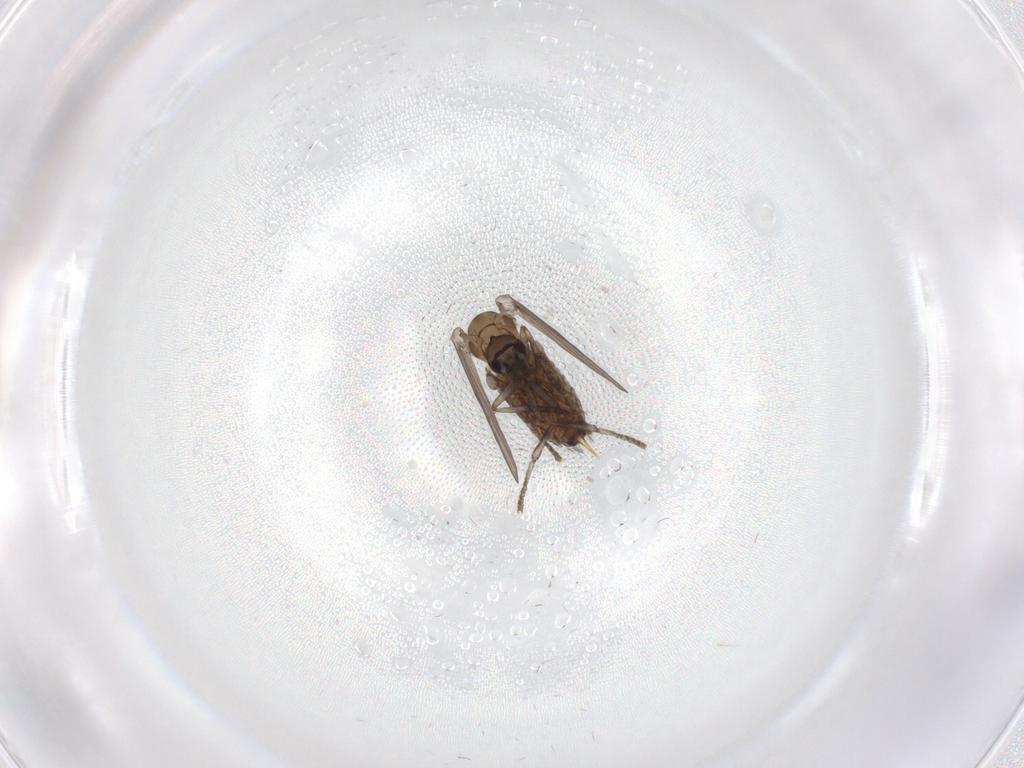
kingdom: Animalia
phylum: Arthropoda
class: Insecta
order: Diptera
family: Psychodidae
